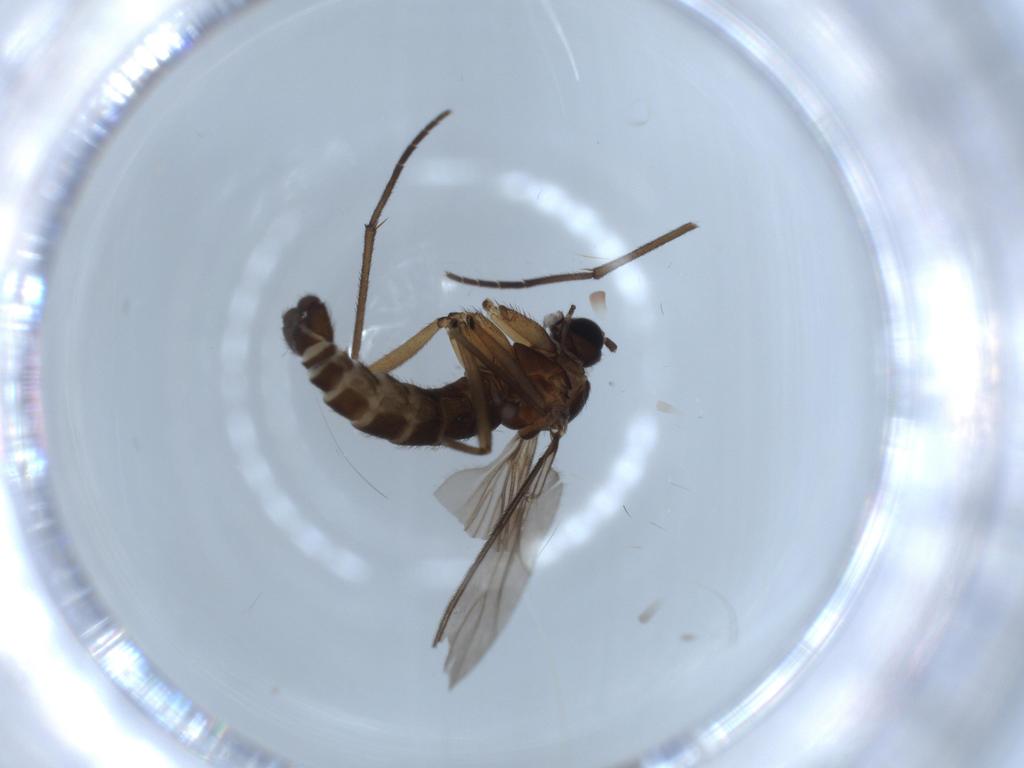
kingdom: Animalia
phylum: Arthropoda
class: Insecta
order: Diptera
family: Sciaridae
